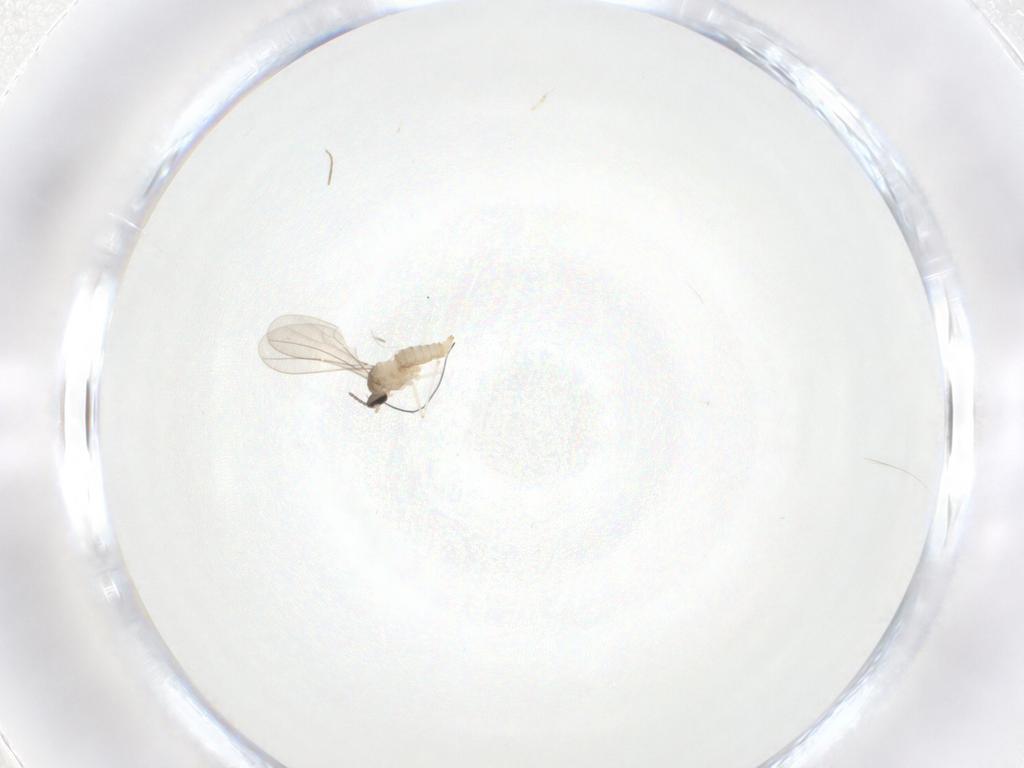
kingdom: Animalia
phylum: Arthropoda
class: Insecta
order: Diptera
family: Cecidomyiidae
